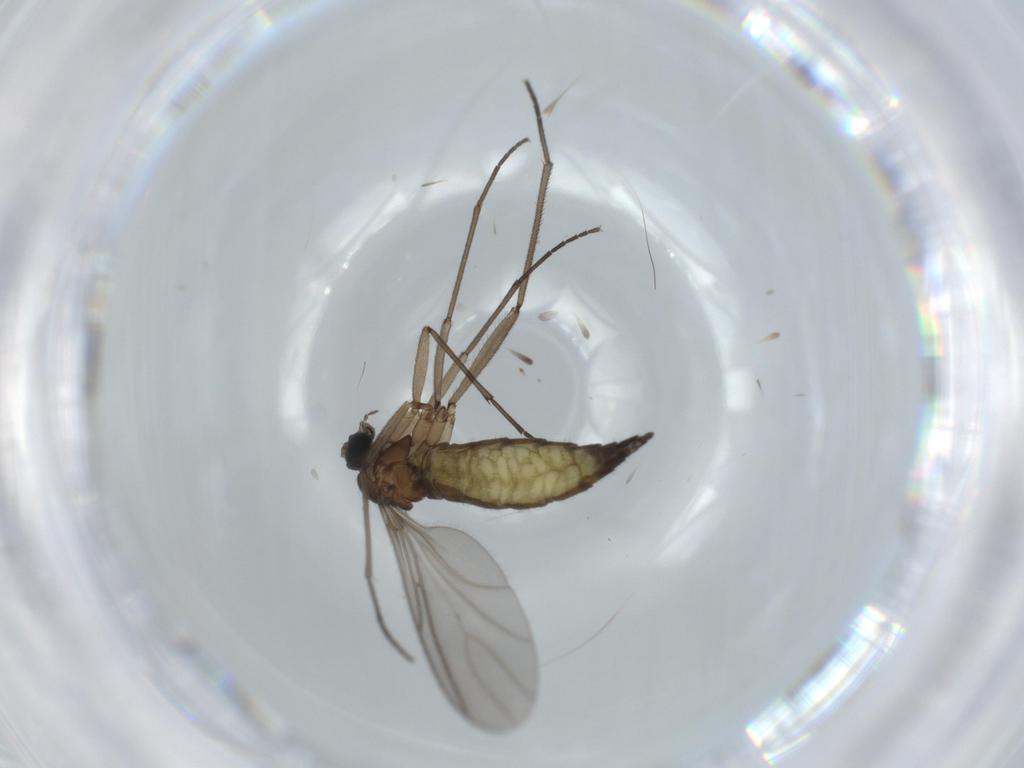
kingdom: Animalia
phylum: Arthropoda
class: Insecta
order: Diptera
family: Sciaridae
